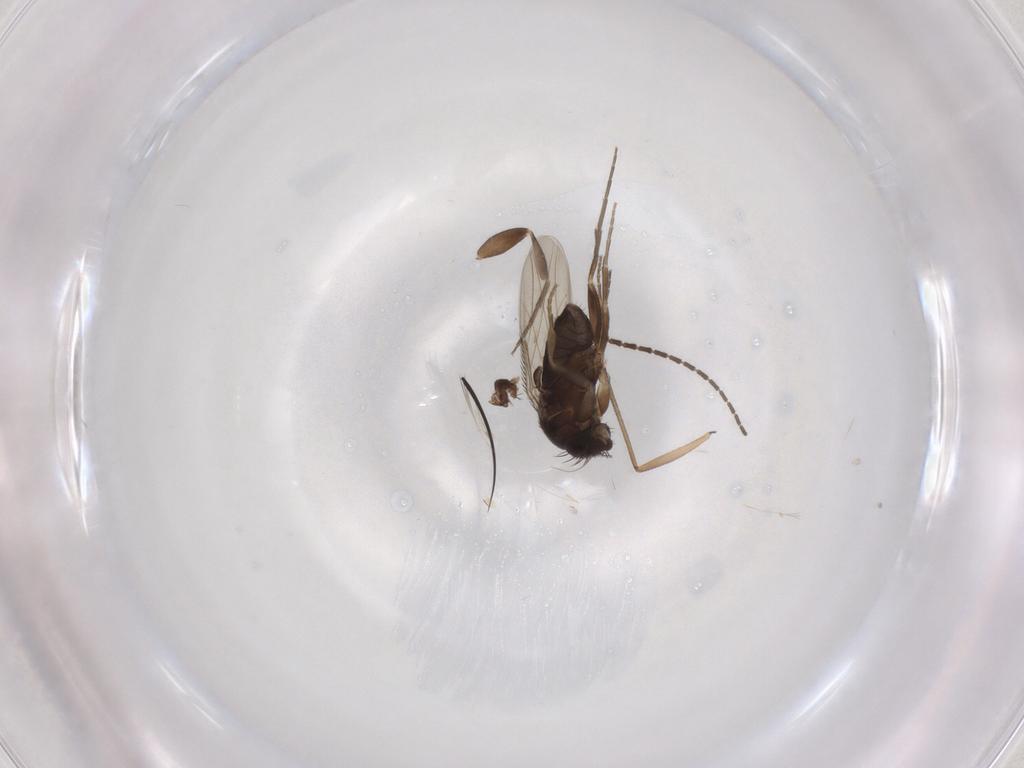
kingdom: Animalia
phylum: Arthropoda
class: Insecta
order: Diptera
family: Phoridae
